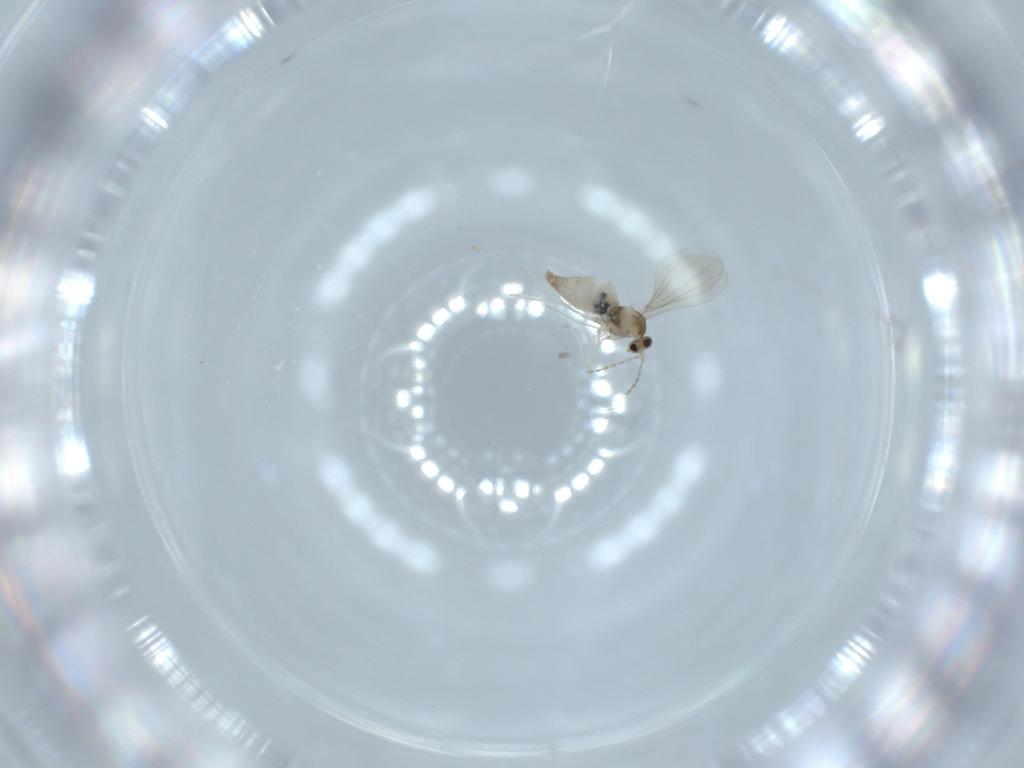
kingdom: Animalia
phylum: Arthropoda
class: Insecta
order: Diptera
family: Cecidomyiidae
